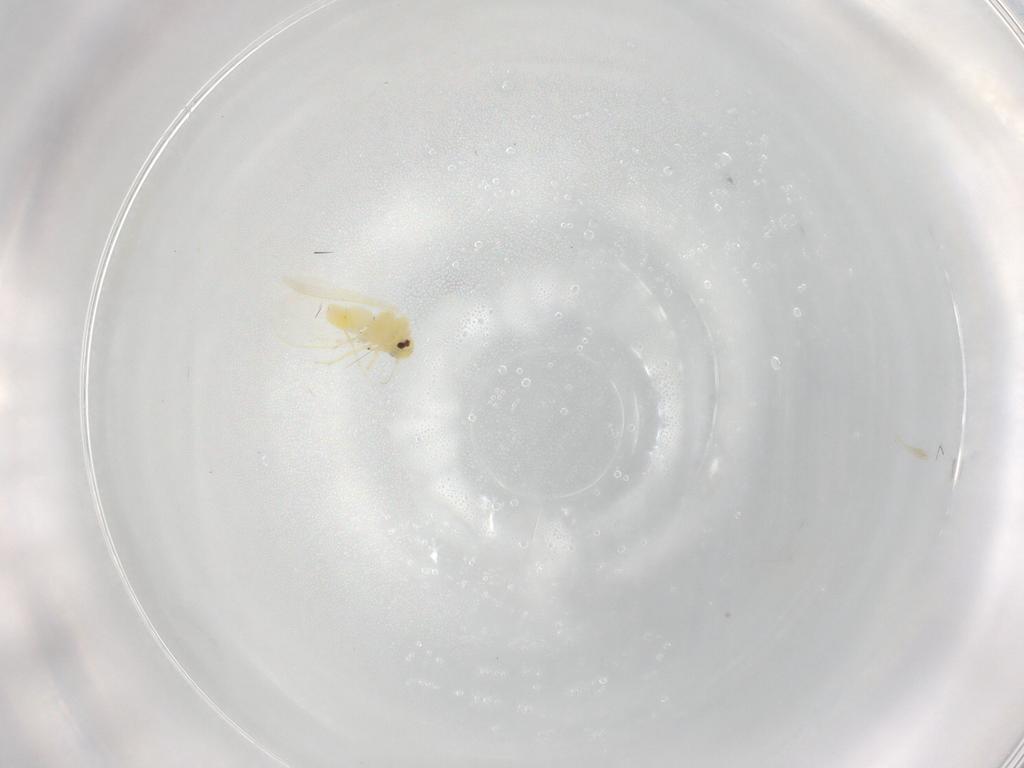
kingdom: Animalia
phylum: Arthropoda
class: Insecta
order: Hemiptera
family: Aleyrodidae
